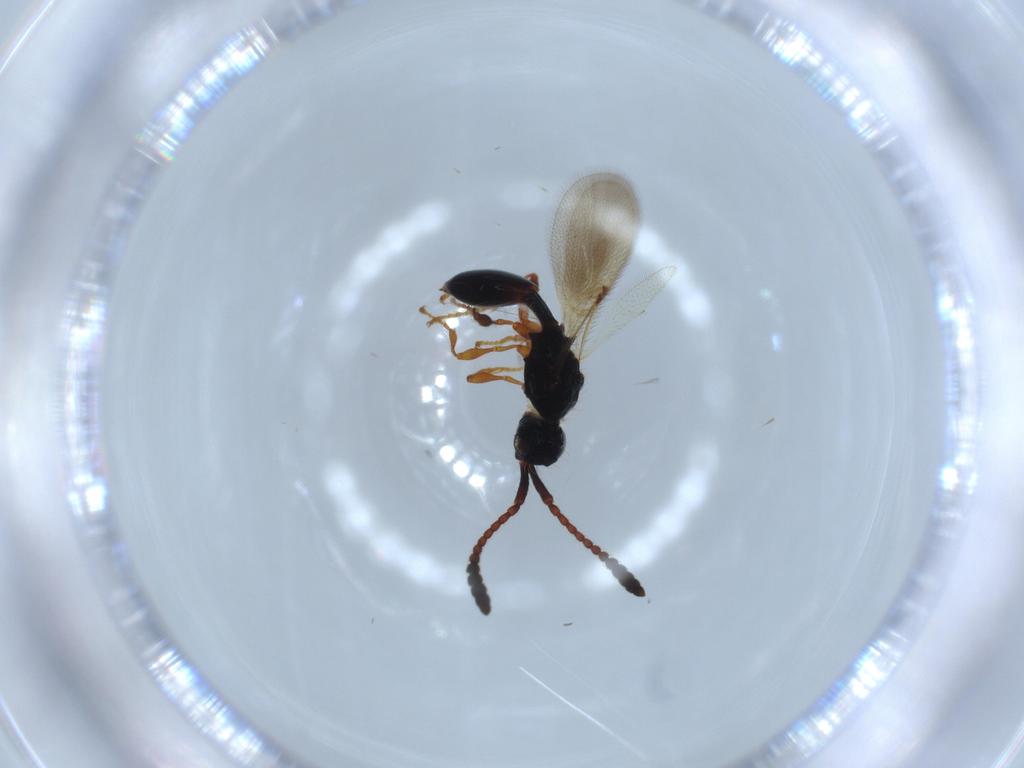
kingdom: Animalia
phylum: Arthropoda
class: Insecta
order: Hymenoptera
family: Diapriidae
